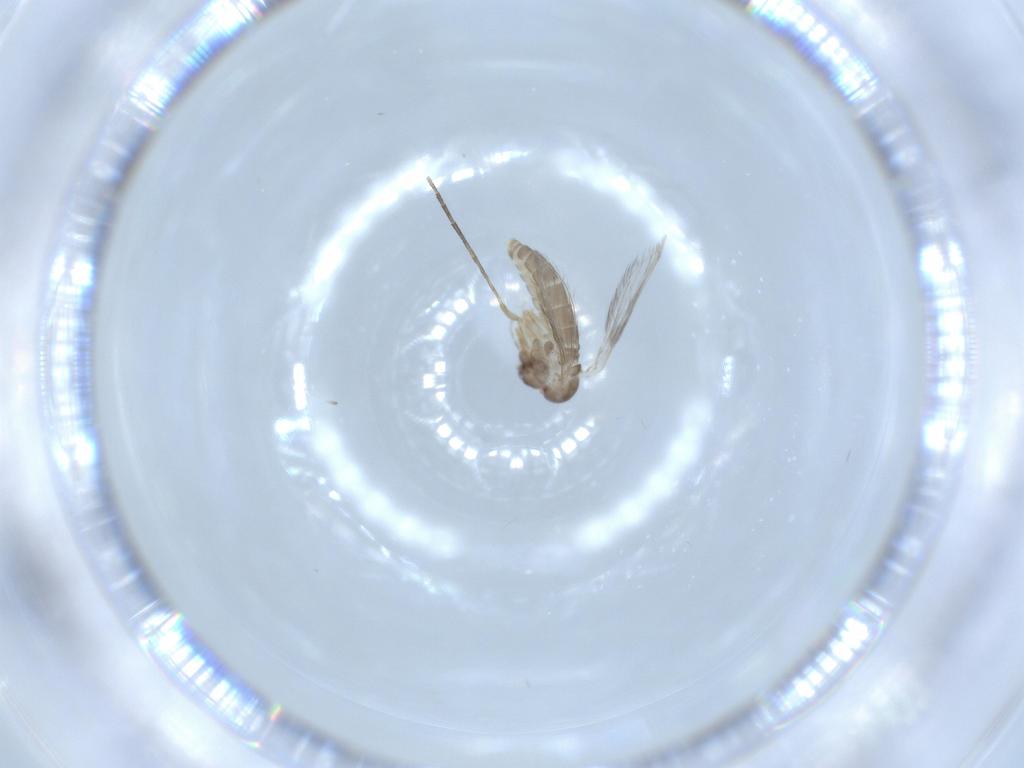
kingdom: Animalia
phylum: Arthropoda
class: Insecta
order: Diptera
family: Psychodidae
